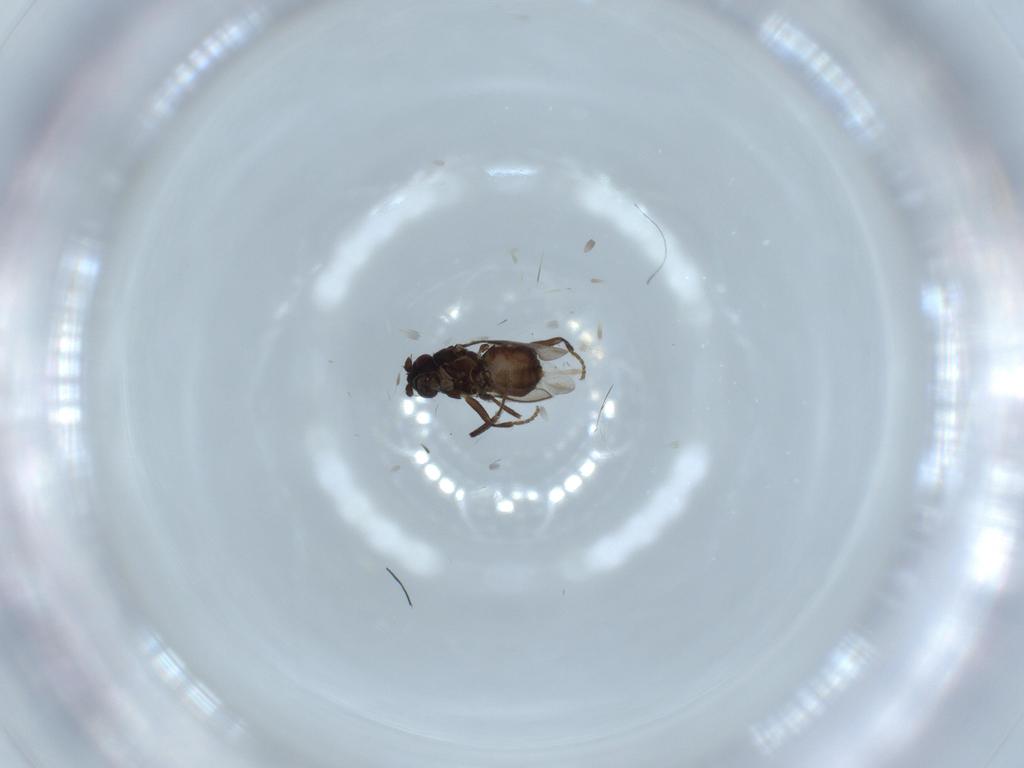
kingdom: Animalia
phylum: Arthropoda
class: Insecta
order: Diptera
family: Sphaeroceridae
